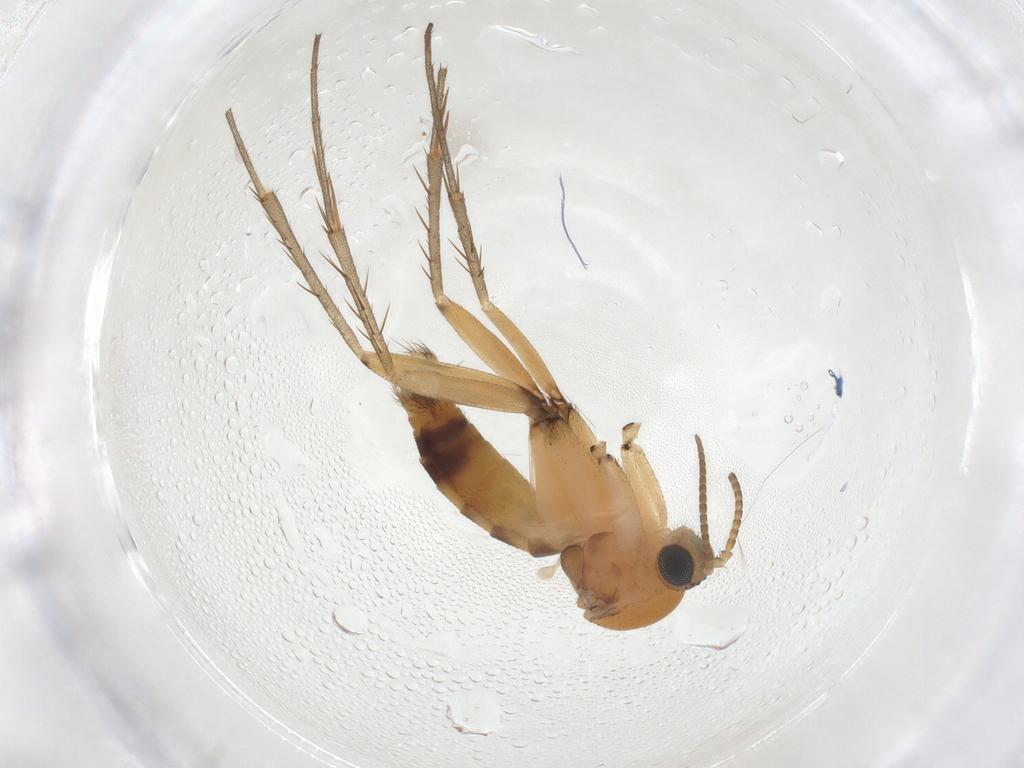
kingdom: Animalia
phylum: Arthropoda
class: Insecta
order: Diptera
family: Mycetophilidae
